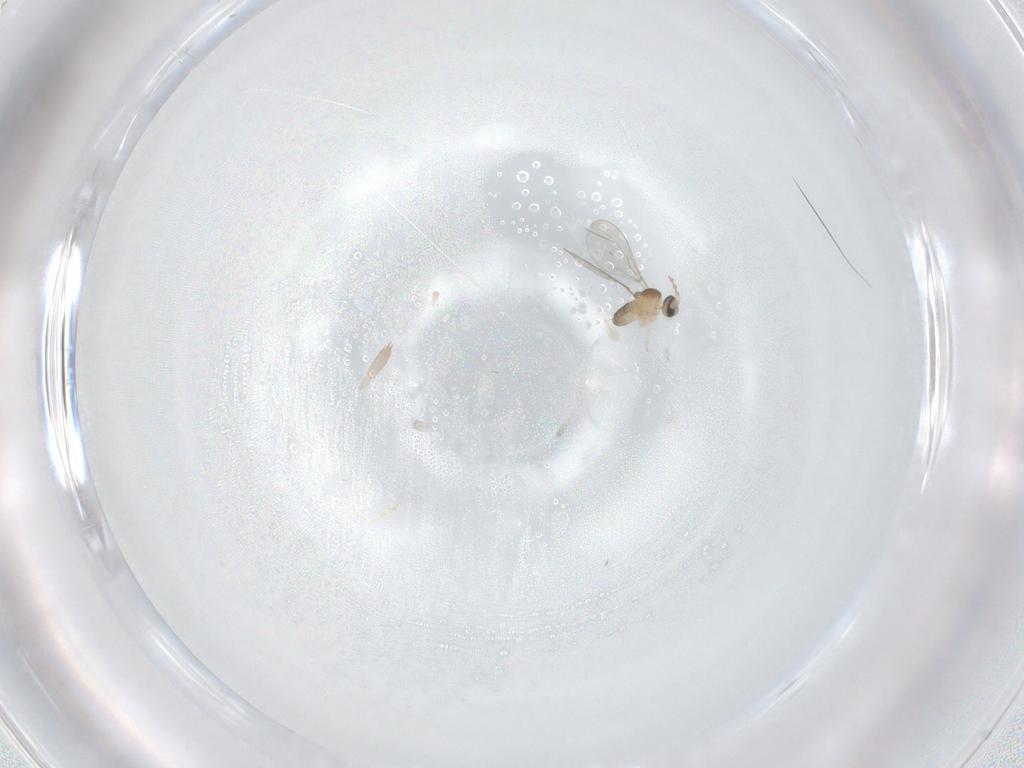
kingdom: Animalia
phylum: Arthropoda
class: Insecta
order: Diptera
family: Cecidomyiidae
